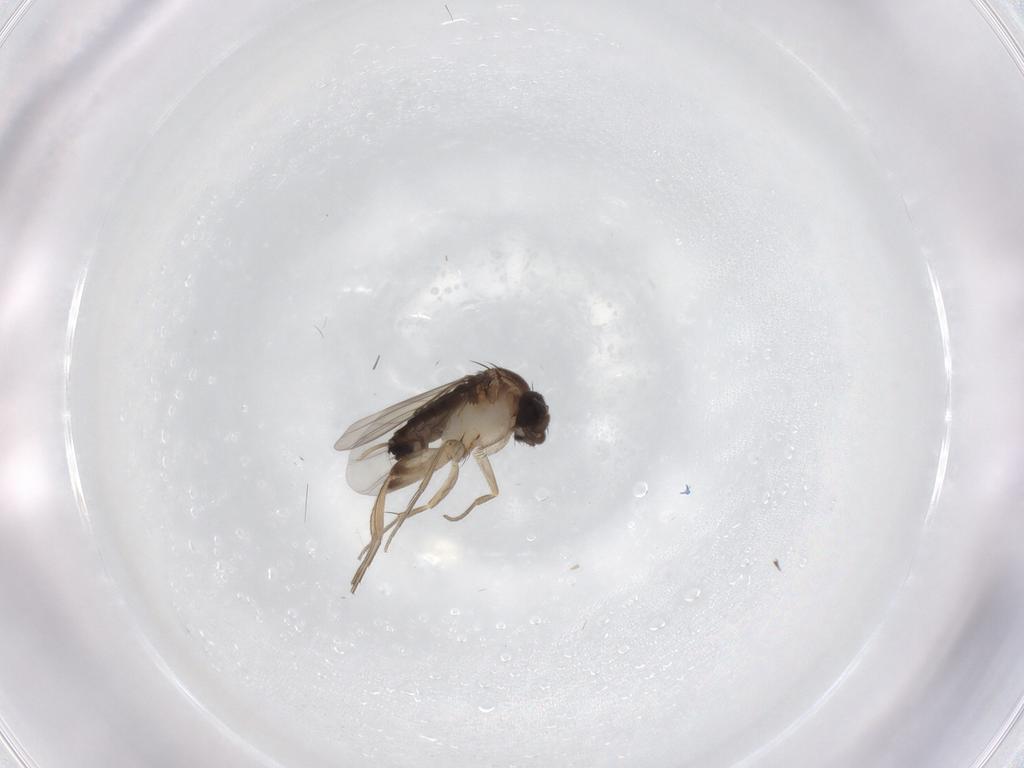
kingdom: Animalia
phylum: Arthropoda
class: Insecta
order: Diptera
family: Phoridae
